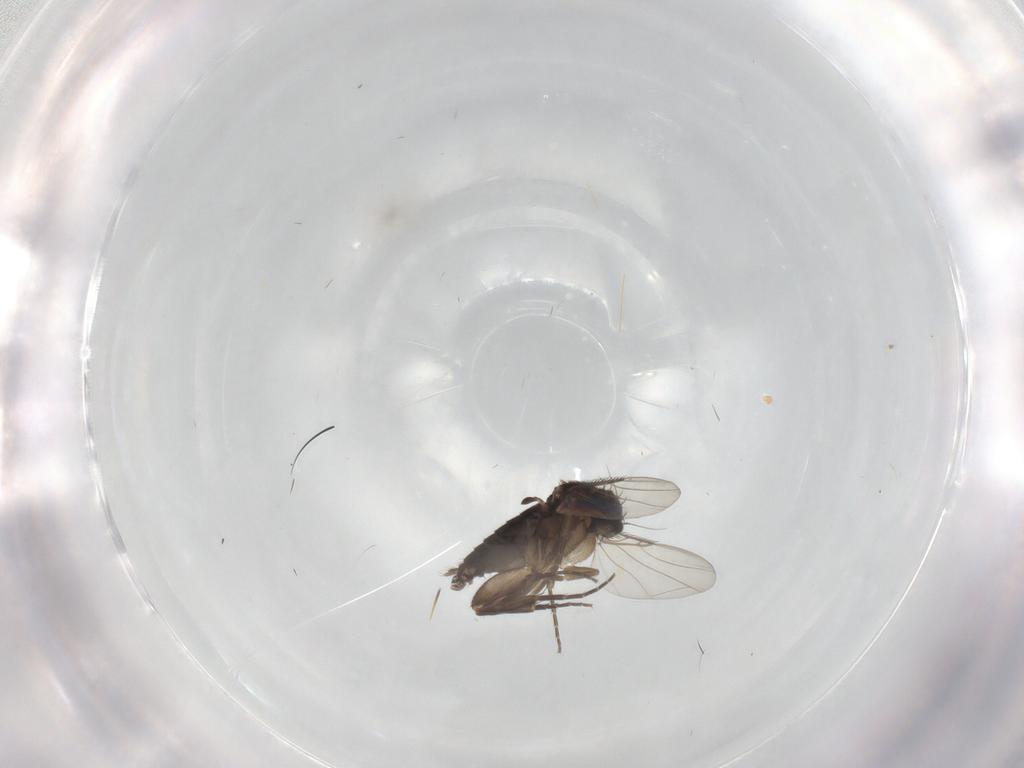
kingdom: Animalia
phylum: Arthropoda
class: Insecta
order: Diptera
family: Phoridae
